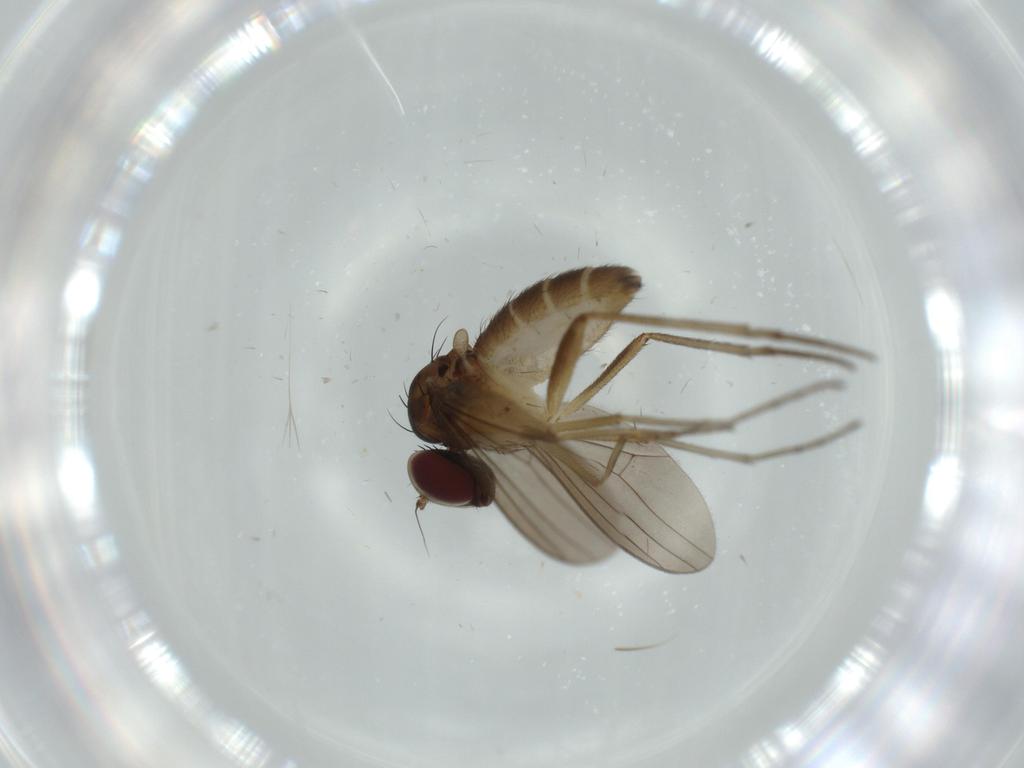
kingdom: Animalia
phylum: Arthropoda
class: Insecta
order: Diptera
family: Dolichopodidae
